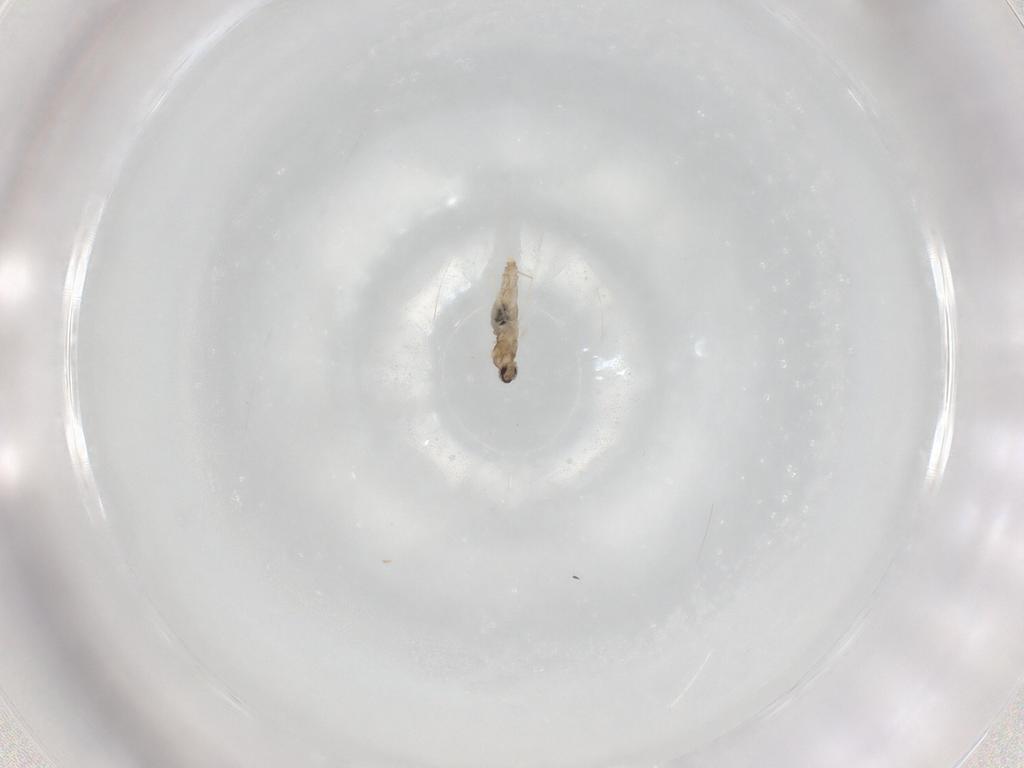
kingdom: Animalia
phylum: Arthropoda
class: Insecta
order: Diptera
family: Cecidomyiidae
